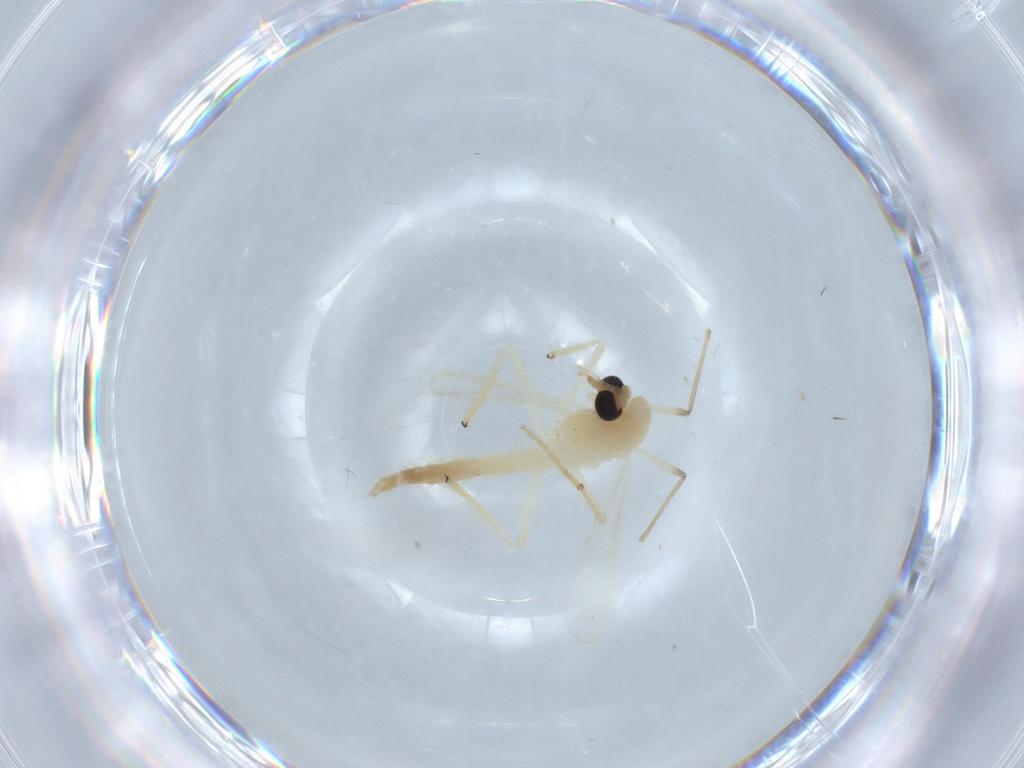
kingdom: Animalia
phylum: Arthropoda
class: Insecta
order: Diptera
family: Chironomidae
